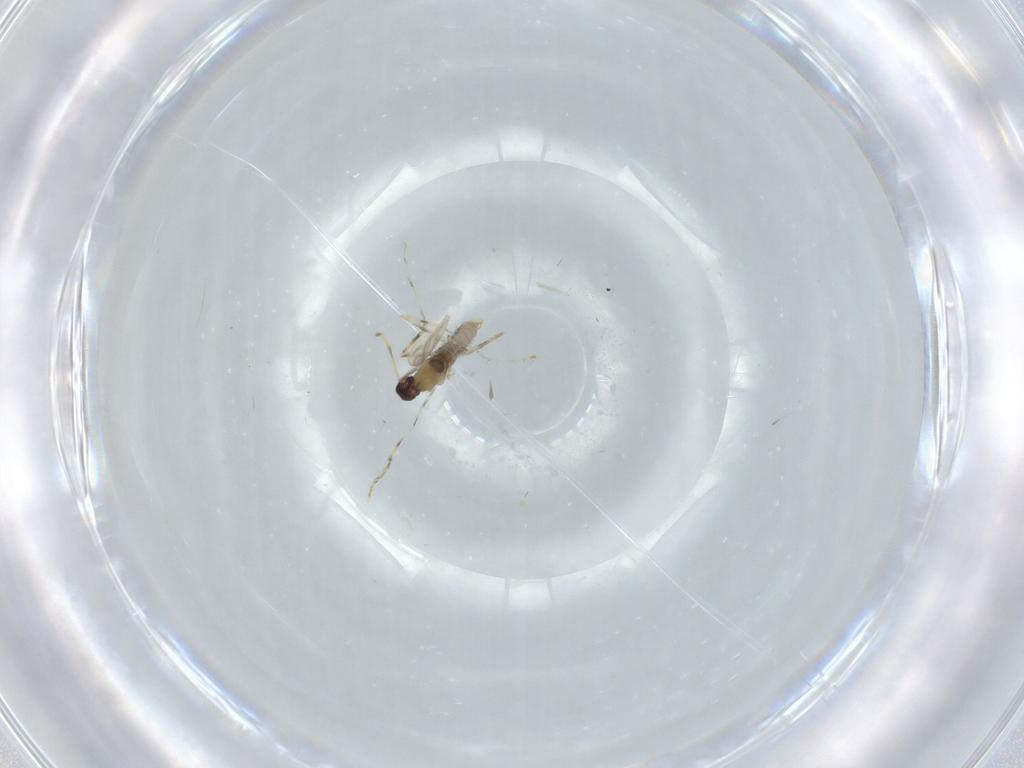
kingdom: Animalia
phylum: Arthropoda
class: Insecta
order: Diptera
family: Cecidomyiidae
